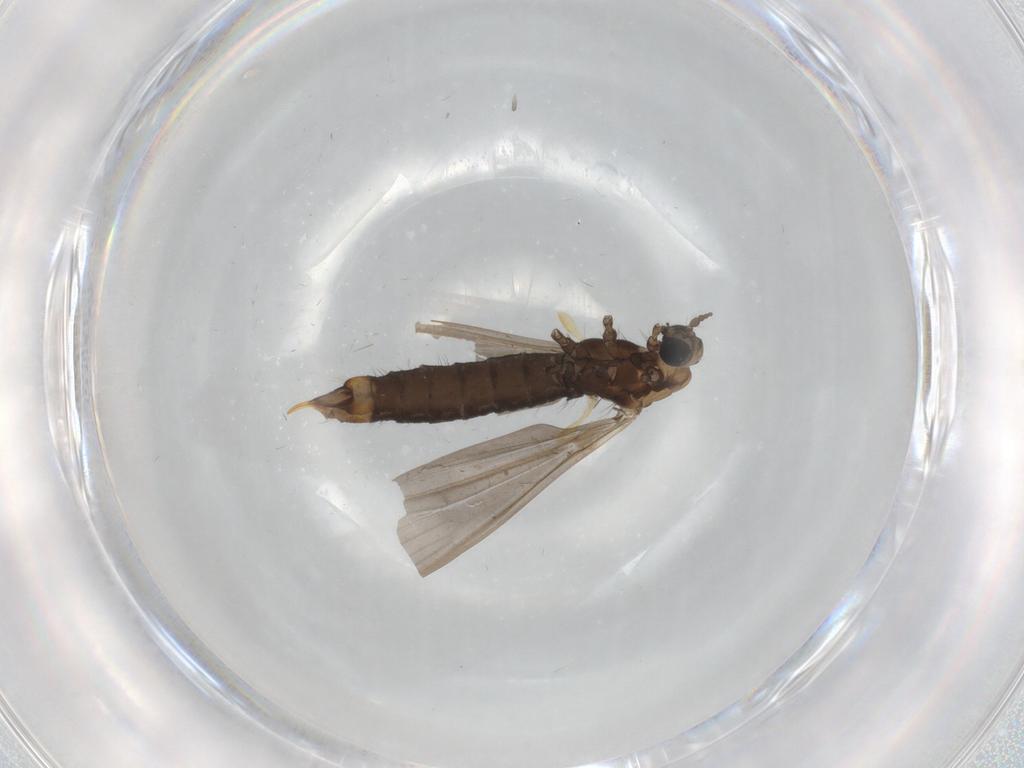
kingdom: Animalia
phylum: Arthropoda
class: Insecta
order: Diptera
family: Limoniidae
